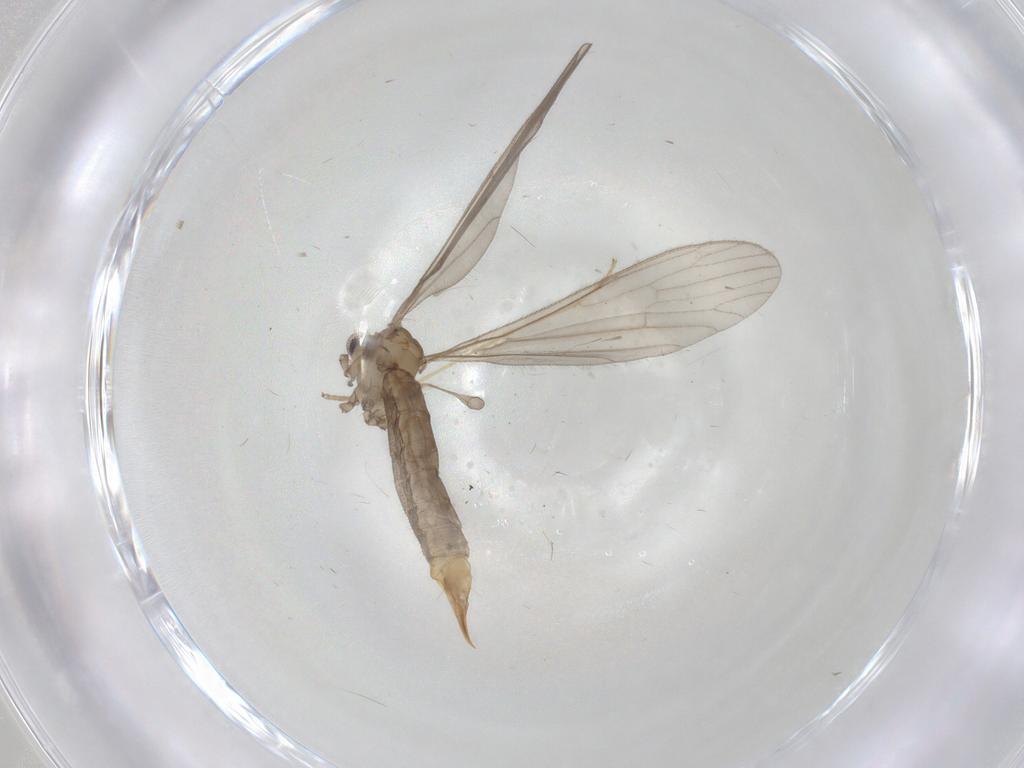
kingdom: Animalia
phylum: Arthropoda
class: Insecta
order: Diptera
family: Limoniidae
